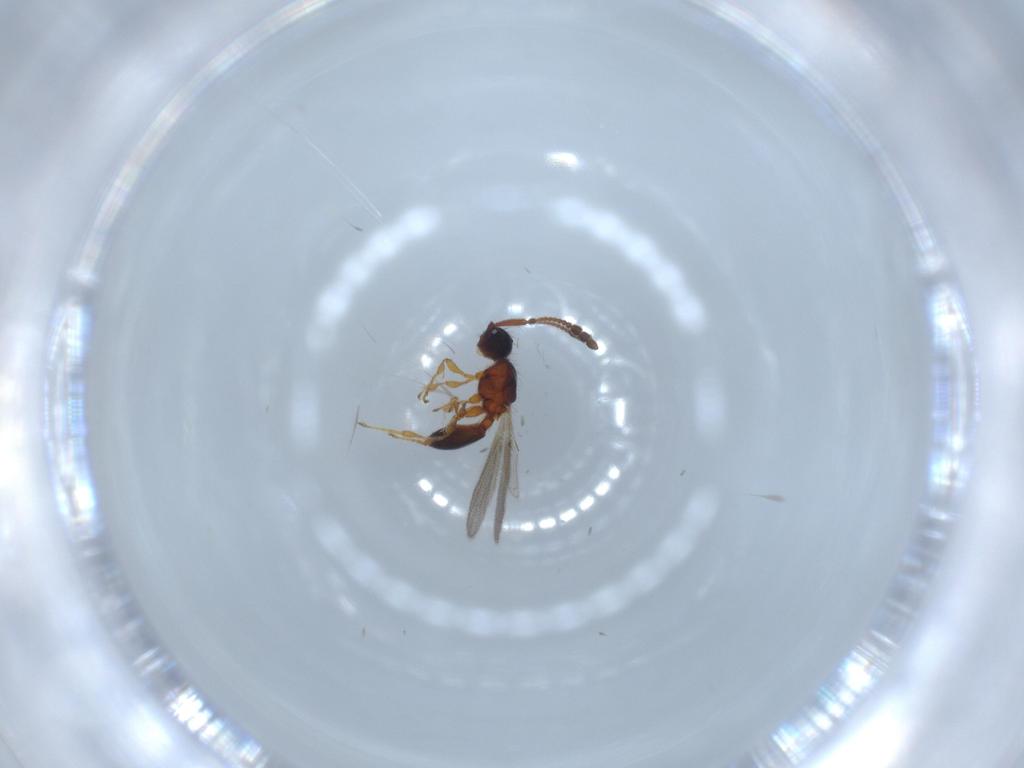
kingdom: Animalia
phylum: Arthropoda
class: Insecta
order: Hymenoptera
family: Diapriidae
